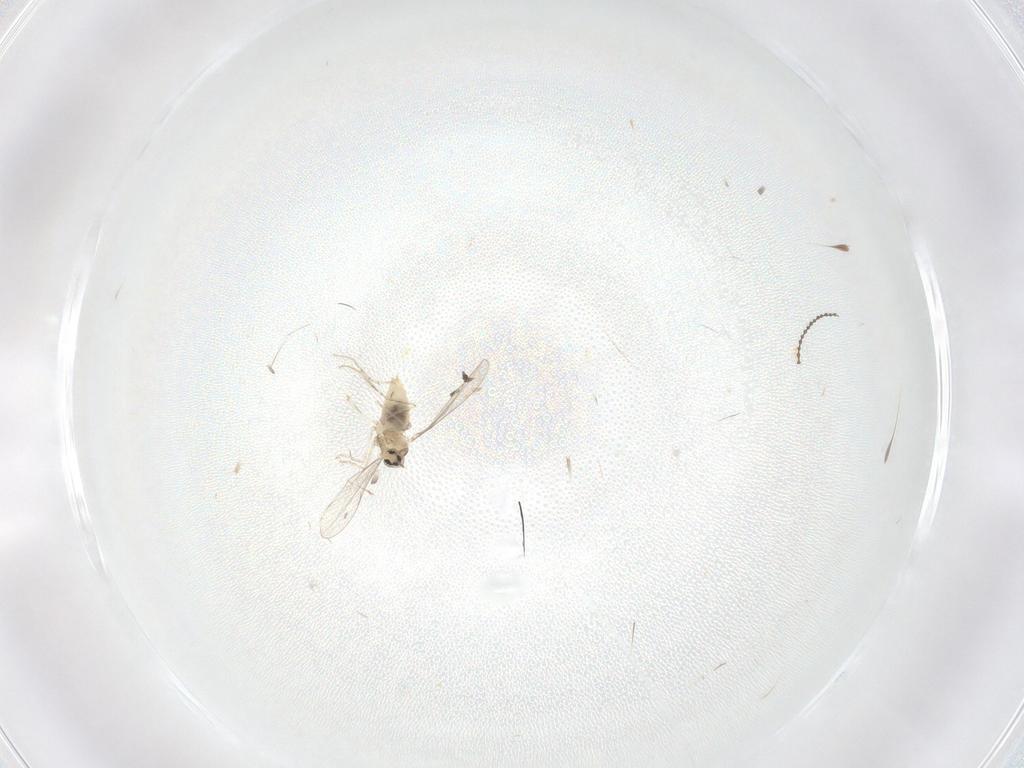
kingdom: Animalia
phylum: Arthropoda
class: Insecta
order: Diptera
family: Cecidomyiidae
